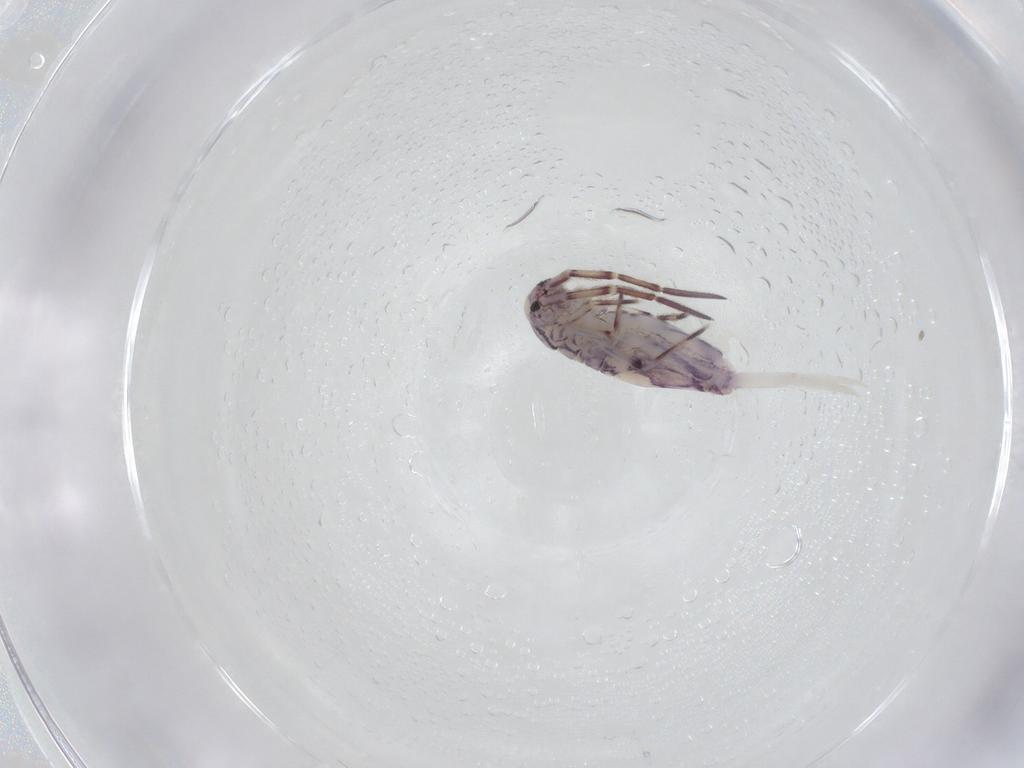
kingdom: Animalia
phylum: Arthropoda
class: Collembola
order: Entomobryomorpha
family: Entomobryidae
